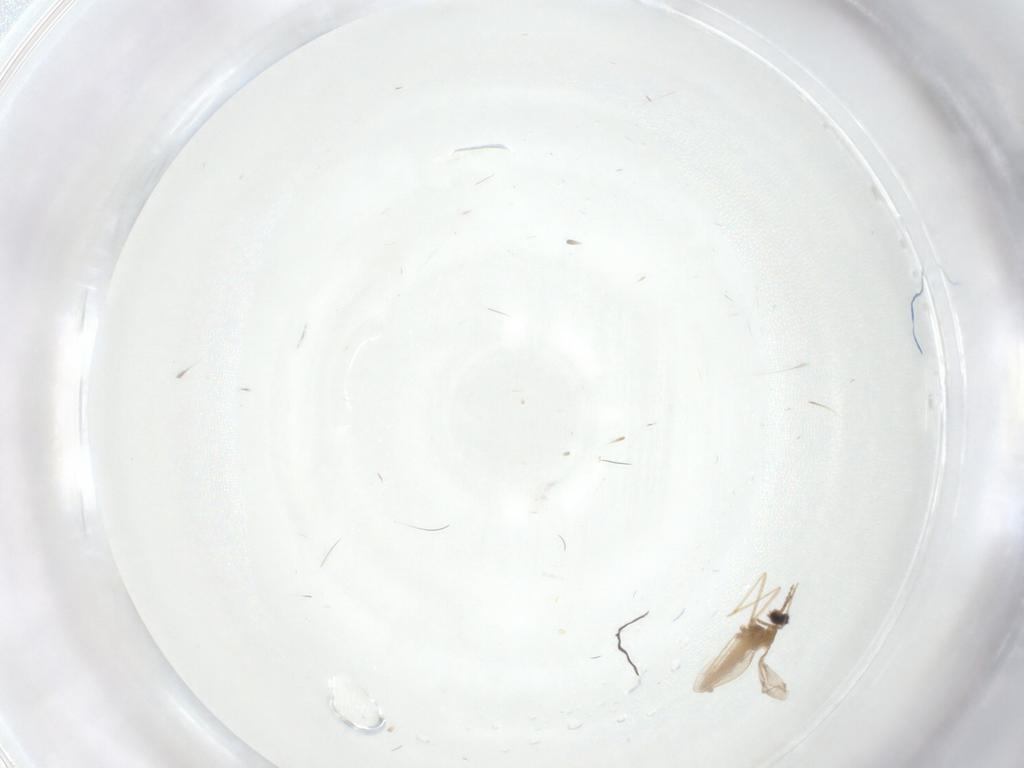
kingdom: Animalia
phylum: Arthropoda
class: Insecta
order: Diptera
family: Cecidomyiidae
